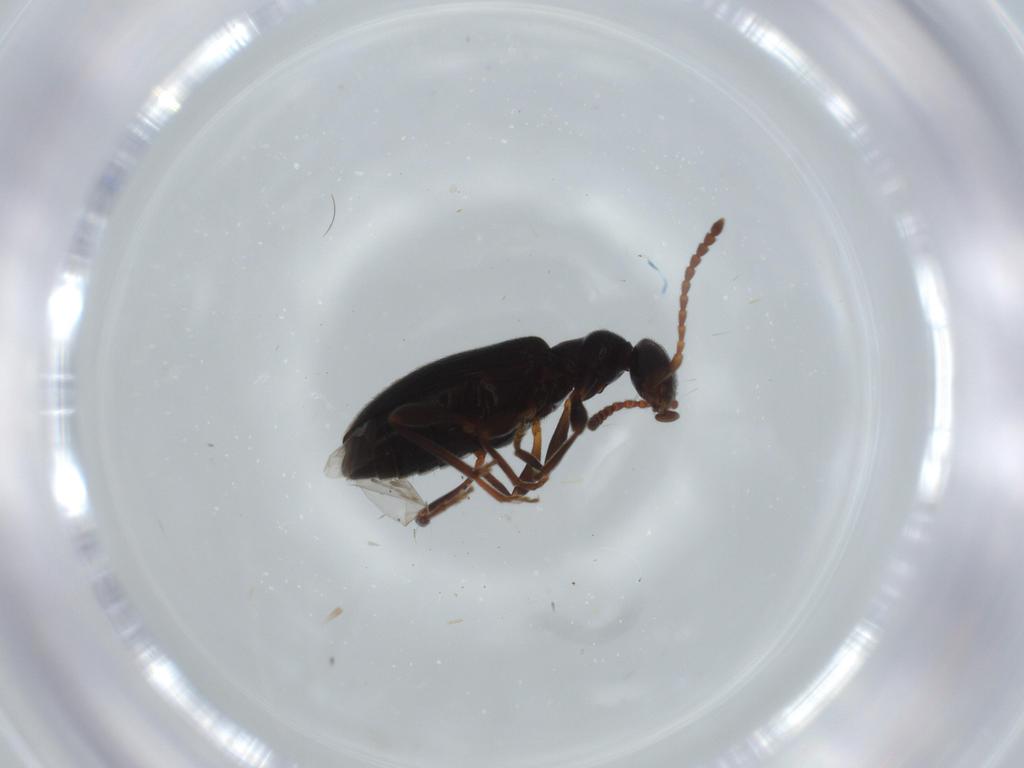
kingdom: Animalia
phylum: Arthropoda
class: Insecta
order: Coleoptera
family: Anthicidae
